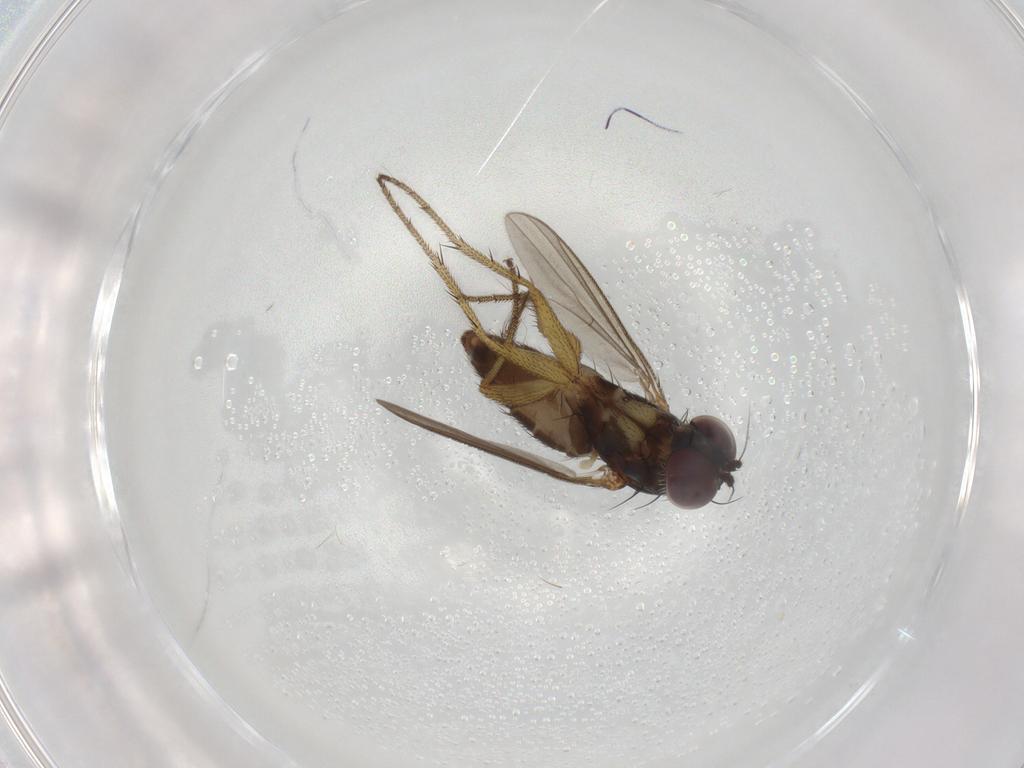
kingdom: Animalia
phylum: Arthropoda
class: Insecta
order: Diptera
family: Dolichopodidae
